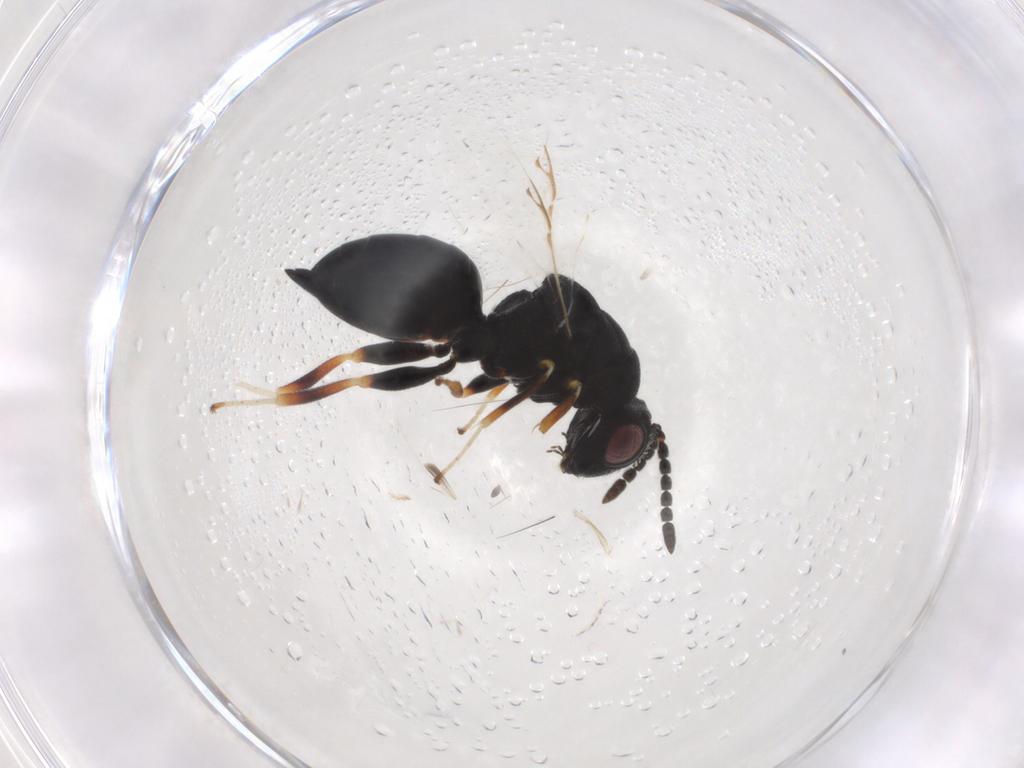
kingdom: Animalia
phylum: Arthropoda
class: Insecta
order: Hymenoptera
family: Eurytomidae
